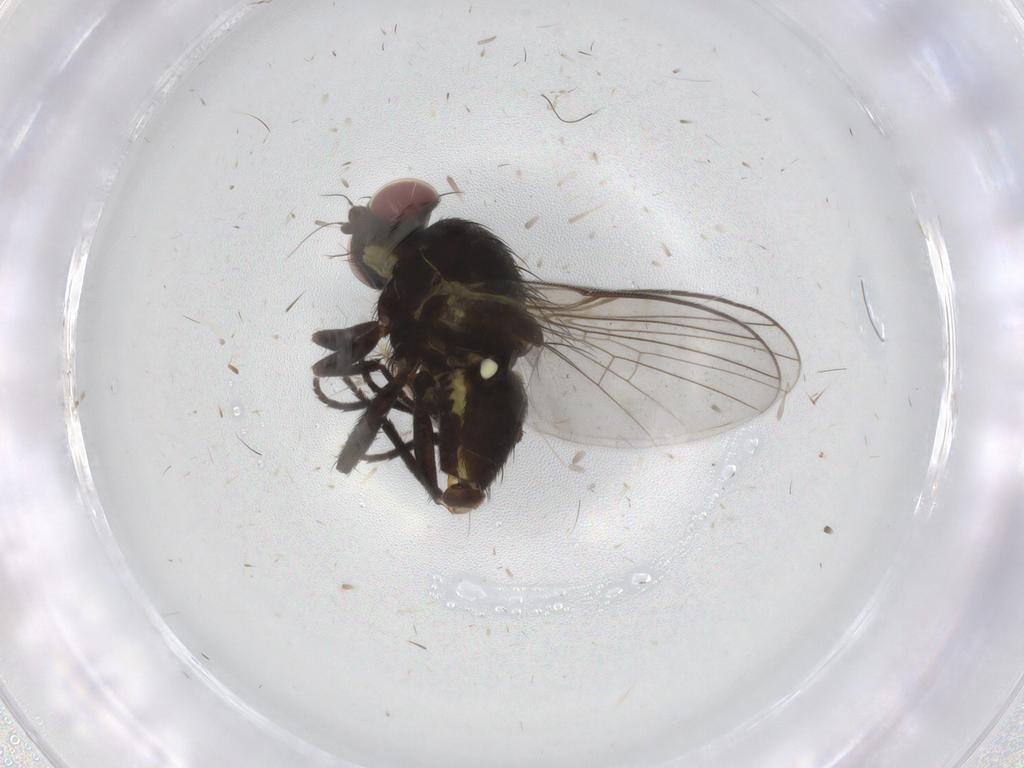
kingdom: Animalia
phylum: Arthropoda
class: Insecta
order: Diptera
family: Agromyzidae
